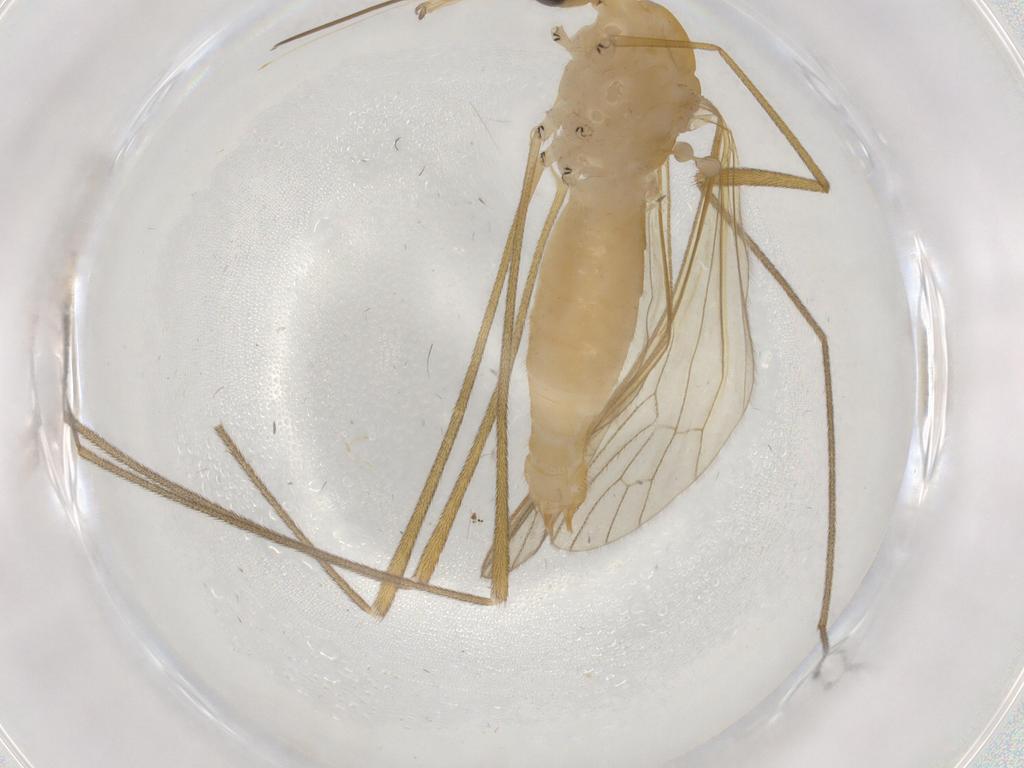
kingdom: Animalia
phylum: Arthropoda
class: Insecta
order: Diptera
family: Chironomidae
